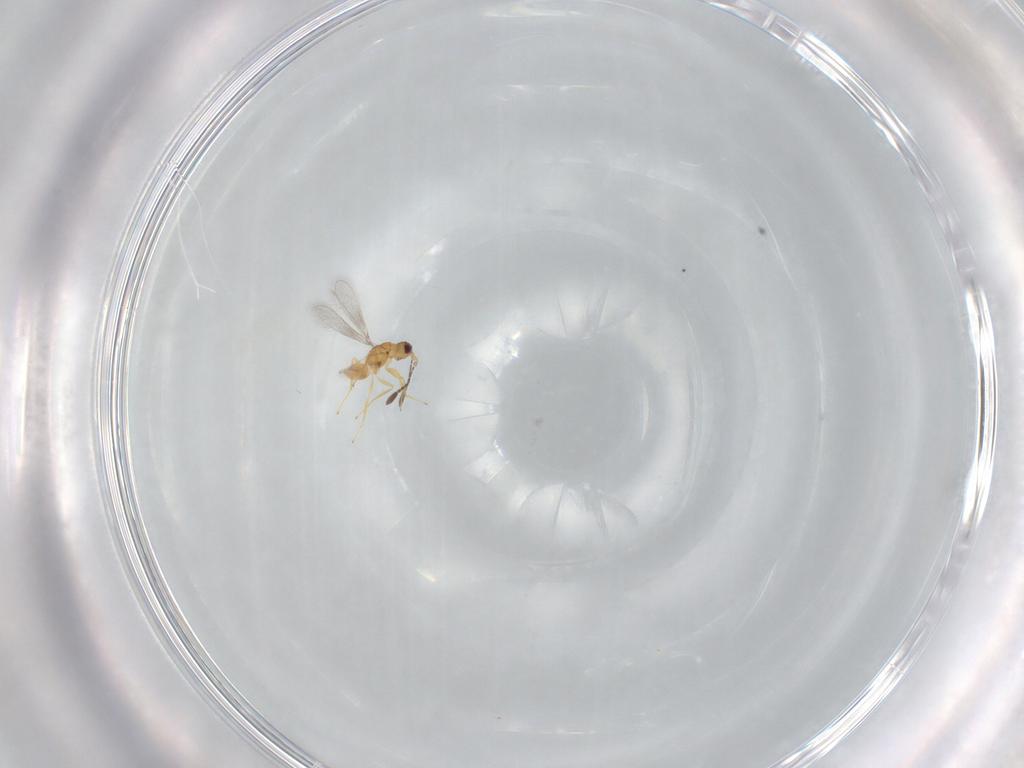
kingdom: Animalia
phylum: Arthropoda
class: Insecta
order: Hymenoptera
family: Mymaridae
